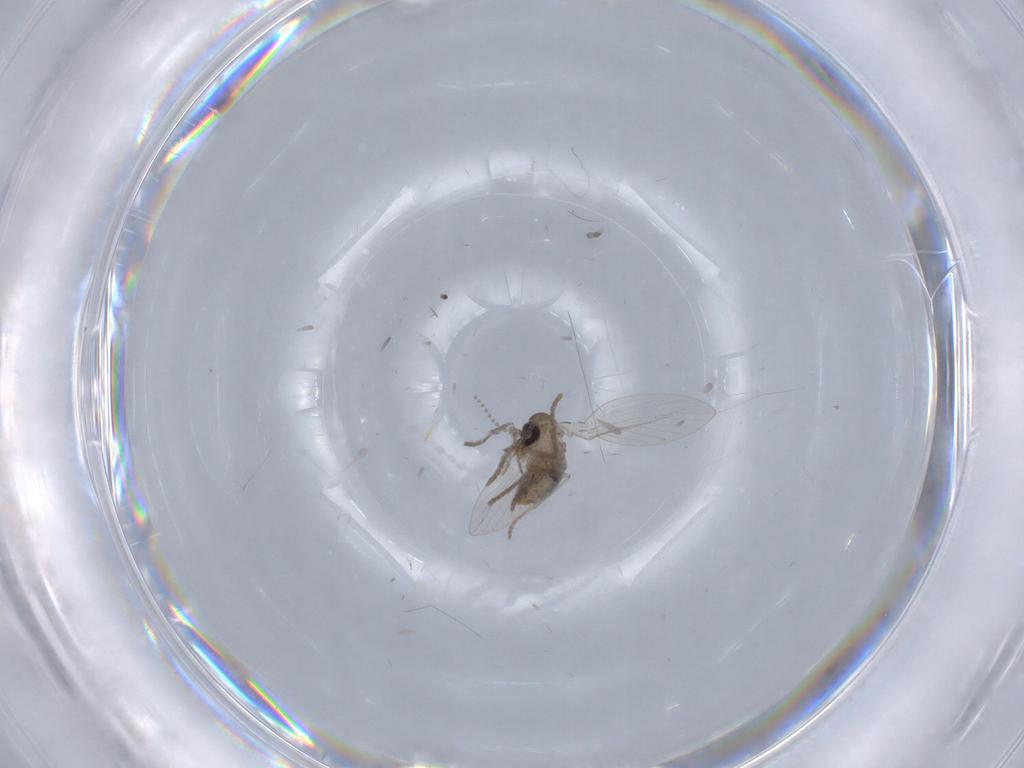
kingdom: Animalia
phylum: Arthropoda
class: Insecta
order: Diptera
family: Psychodidae
